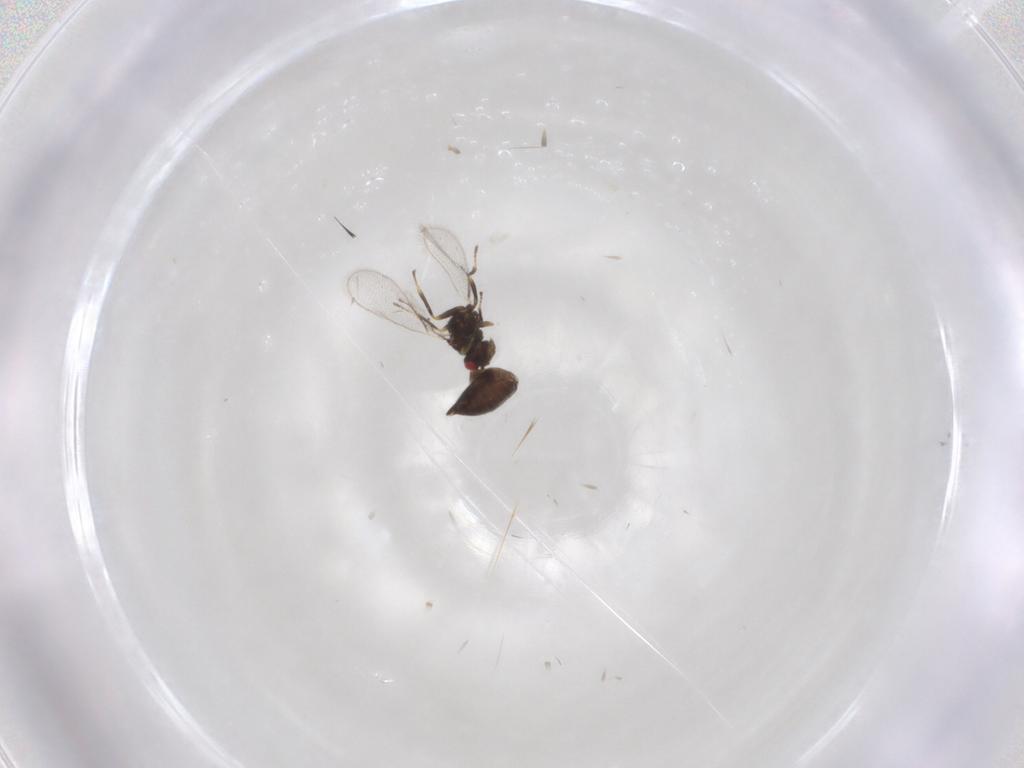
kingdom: Animalia
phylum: Arthropoda
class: Insecta
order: Hymenoptera
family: Eulophidae
